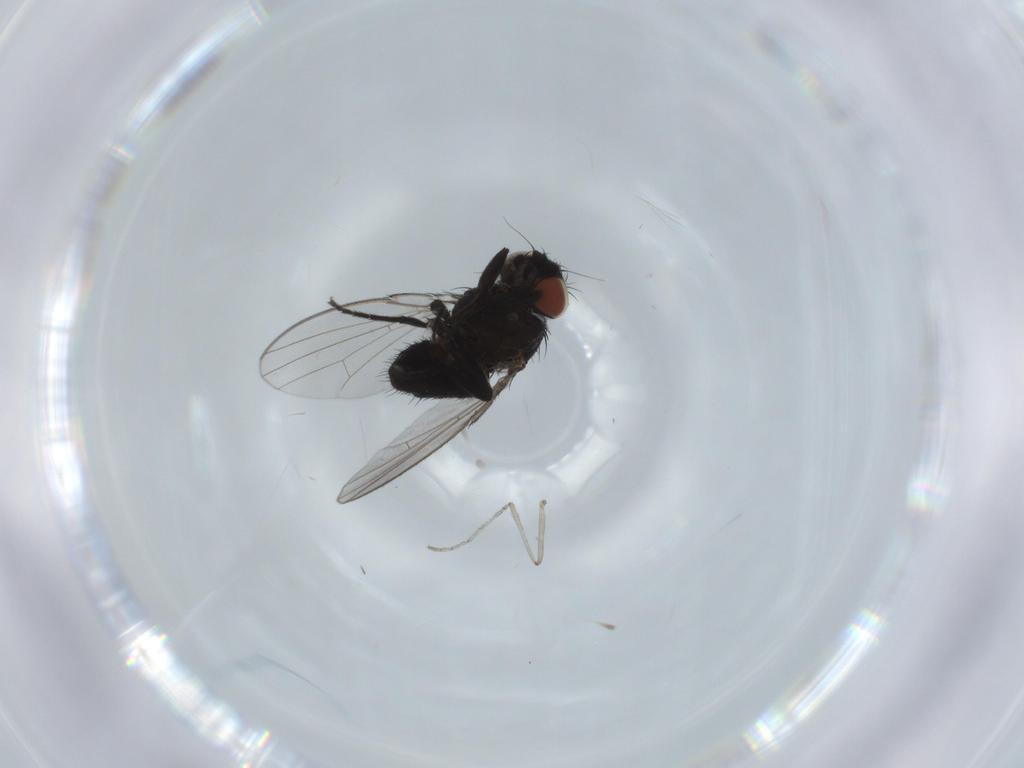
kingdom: Animalia
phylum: Arthropoda
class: Insecta
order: Diptera
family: Milichiidae
